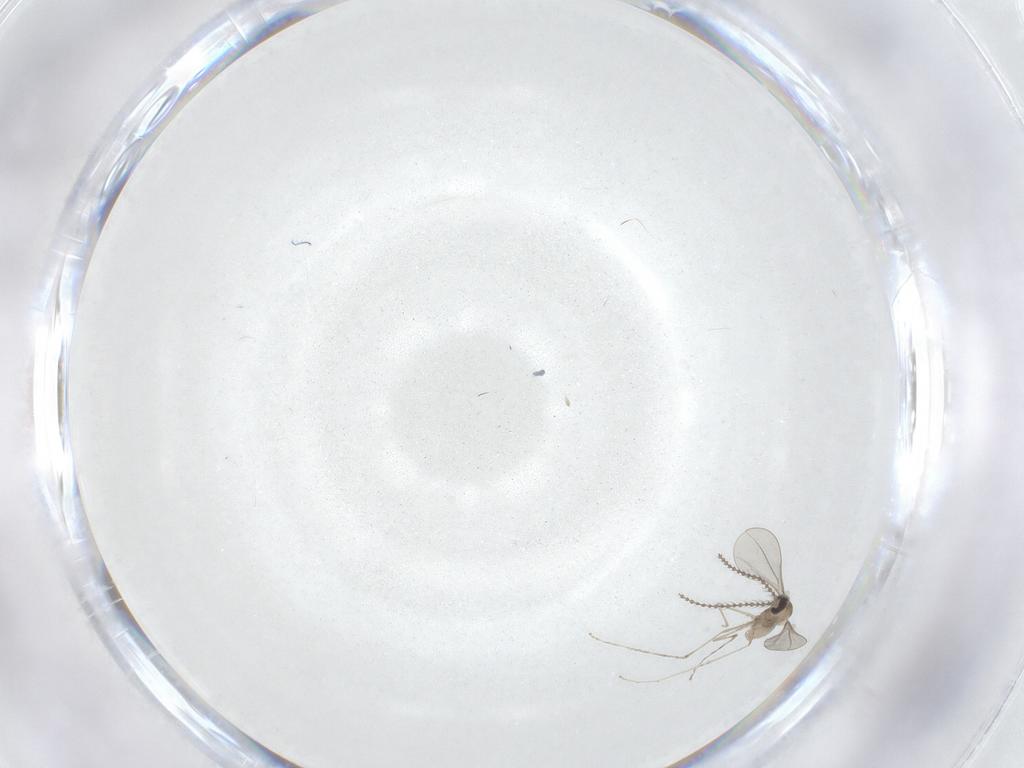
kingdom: Animalia
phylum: Arthropoda
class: Insecta
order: Diptera
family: Cecidomyiidae
